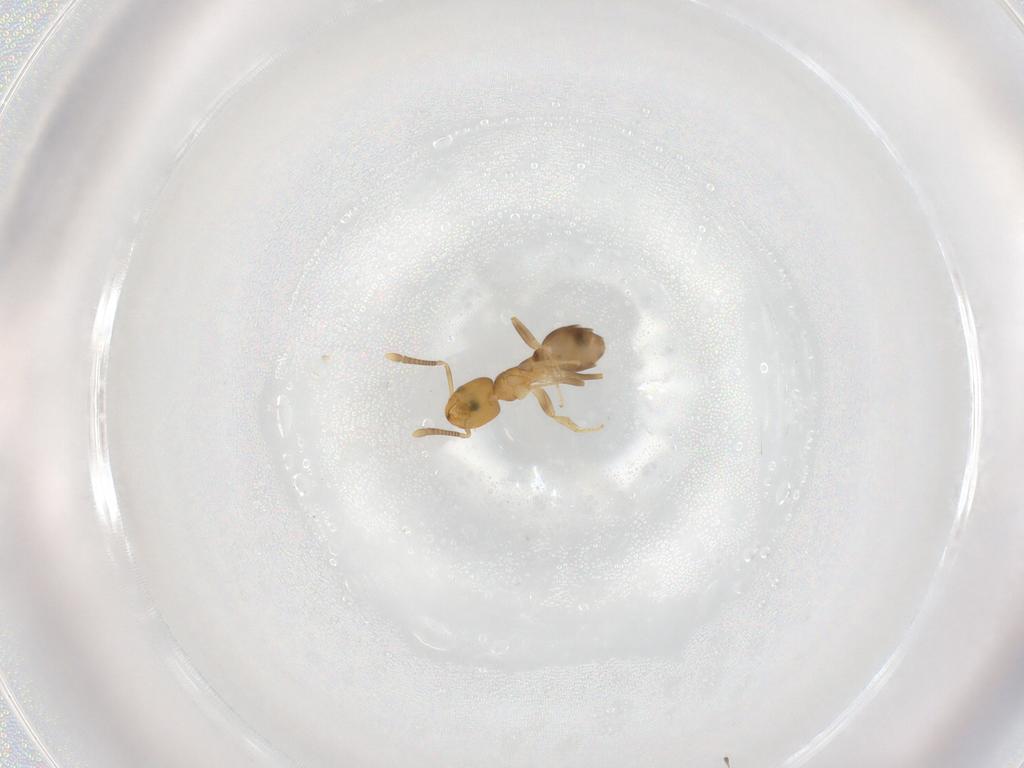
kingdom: Animalia
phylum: Arthropoda
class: Insecta
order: Hymenoptera
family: Formicidae
